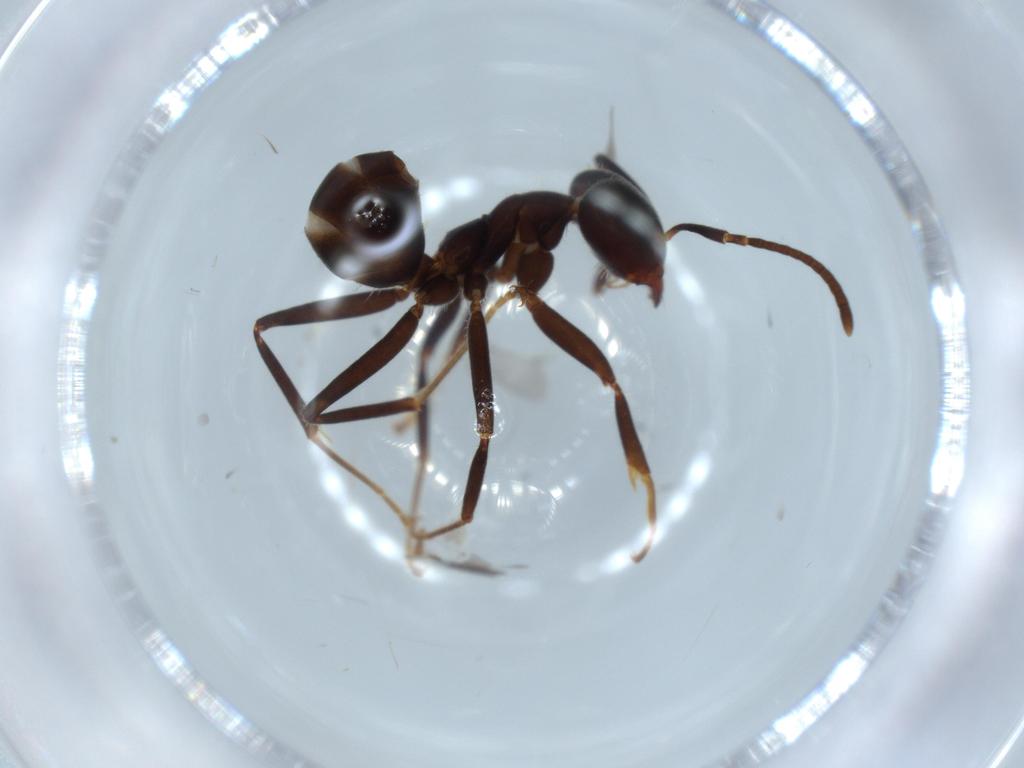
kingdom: Animalia
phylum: Arthropoda
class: Insecta
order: Hymenoptera
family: Formicidae
